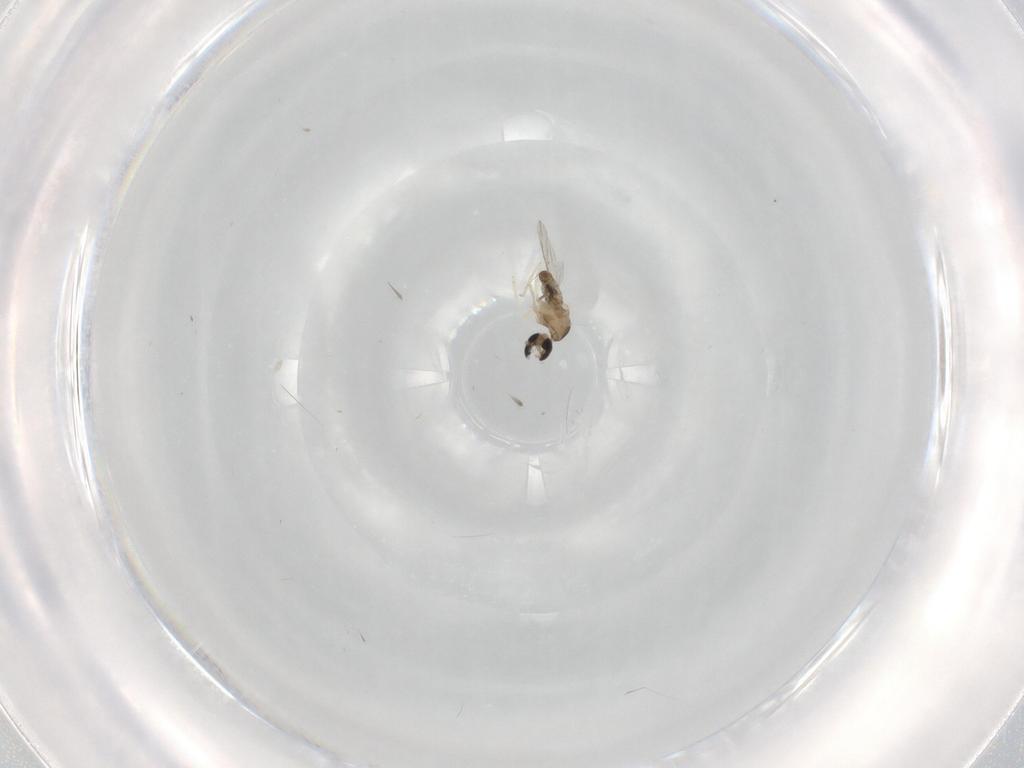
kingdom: Animalia
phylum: Arthropoda
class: Insecta
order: Diptera
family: Cecidomyiidae
